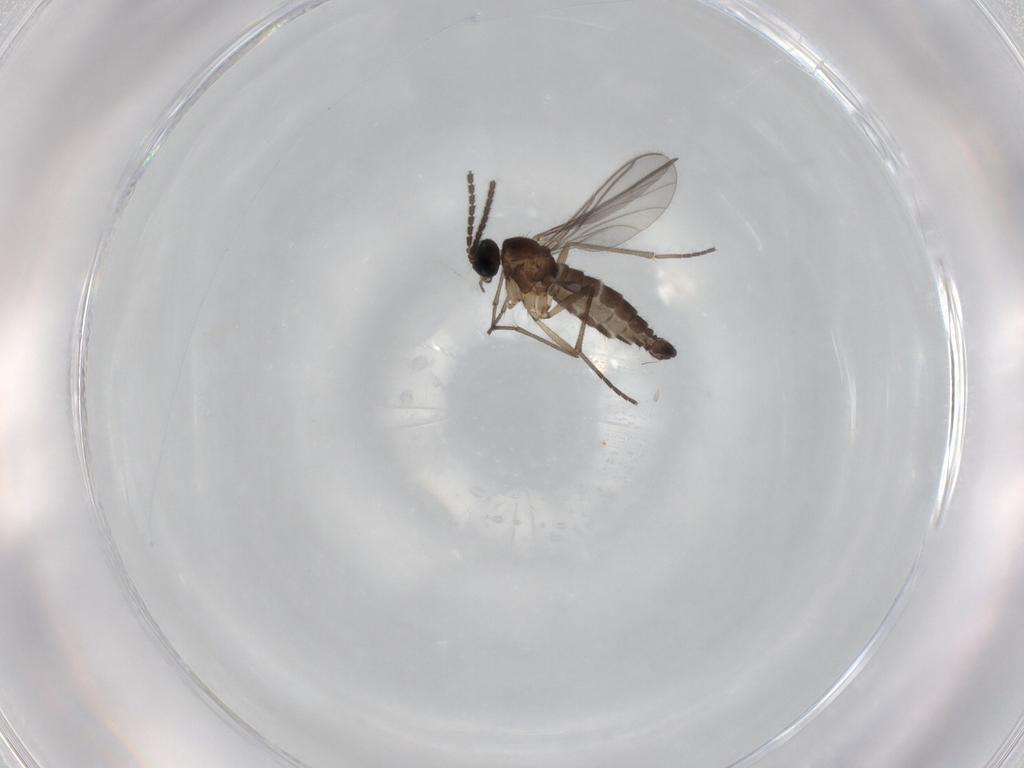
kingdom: Animalia
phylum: Arthropoda
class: Insecta
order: Diptera
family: Sciaridae
